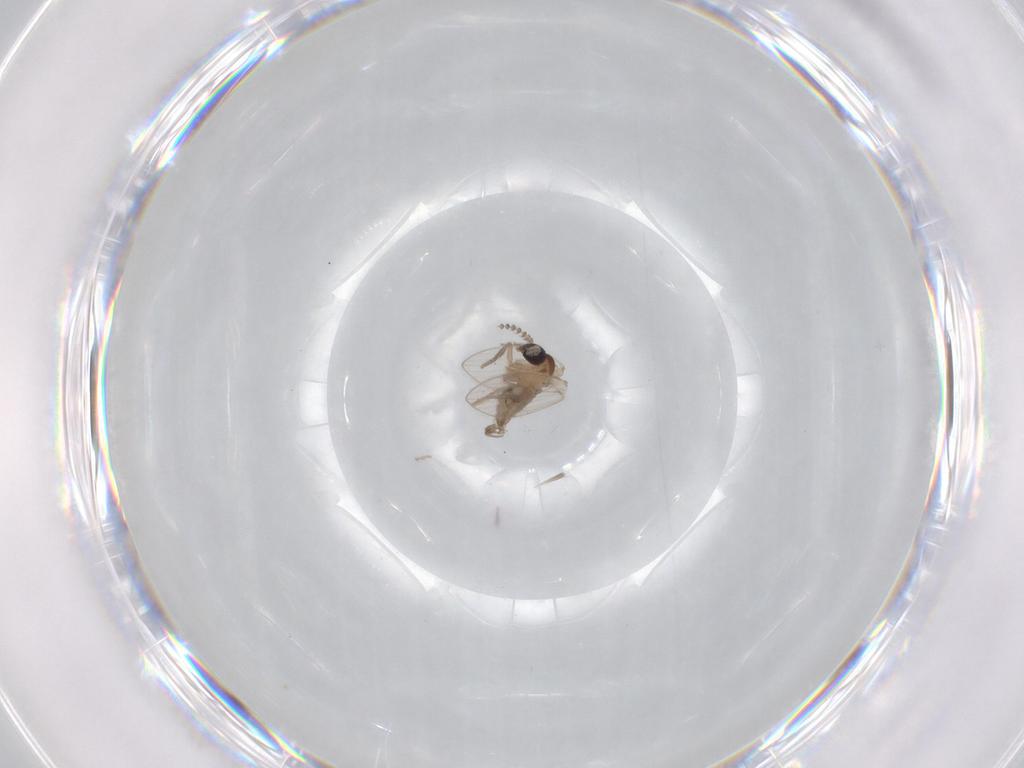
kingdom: Animalia
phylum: Arthropoda
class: Insecta
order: Diptera
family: Psychodidae
